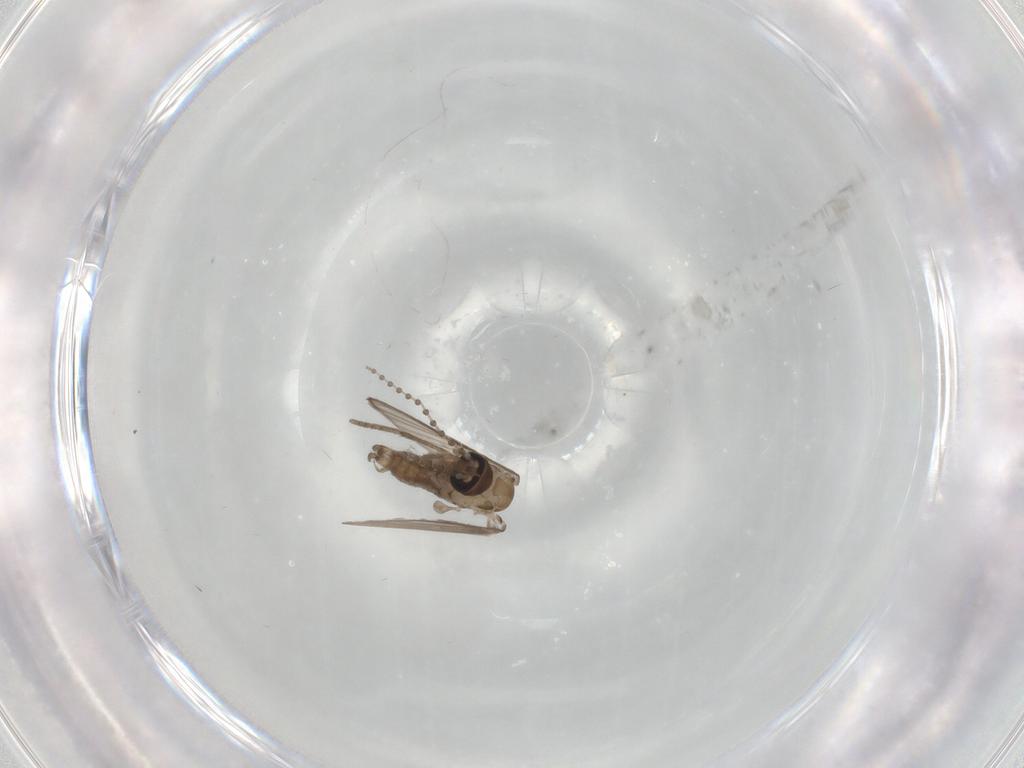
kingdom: Animalia
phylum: Arthropoda
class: Insecta
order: Diptera
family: Psychodidae
